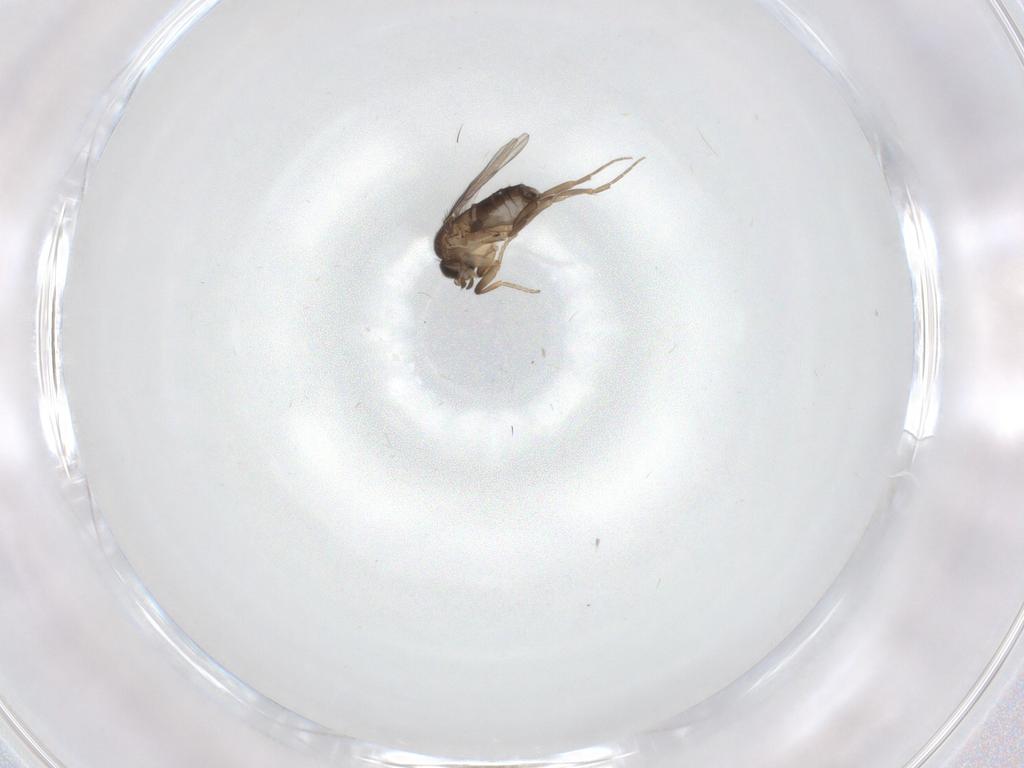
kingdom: Animalia
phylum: Arthropoda
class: Insecta
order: Diptera
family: Phoridae
